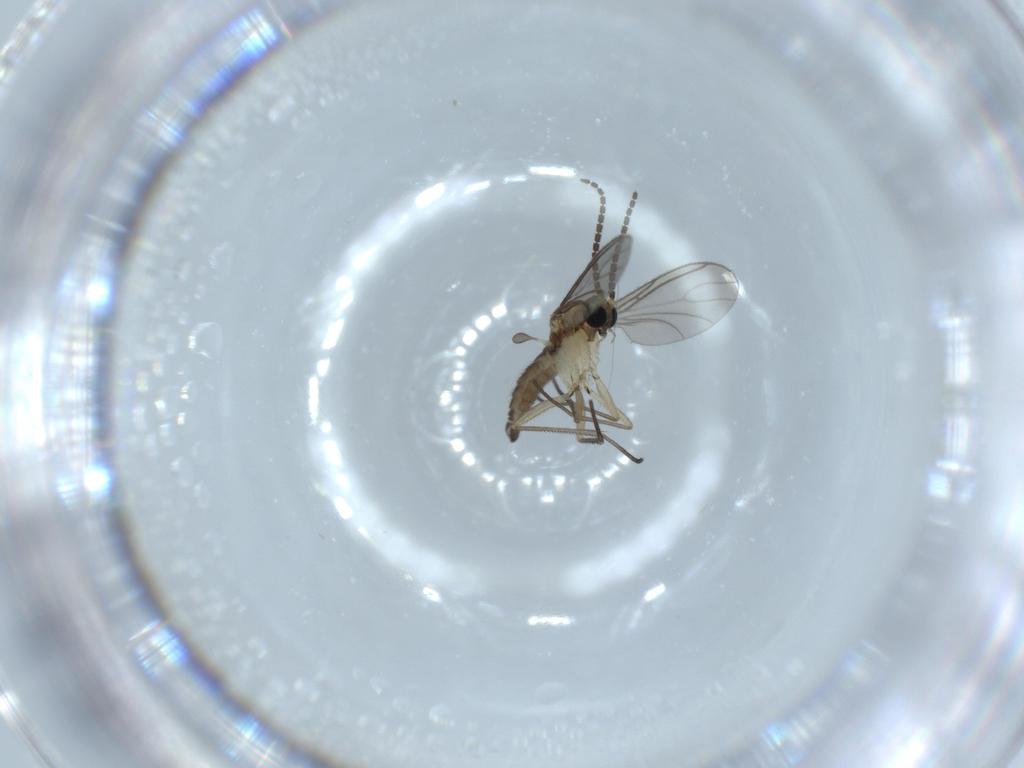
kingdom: Animalia
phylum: Arthropoda
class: Insecta
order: Diptera
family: Sciaridae
